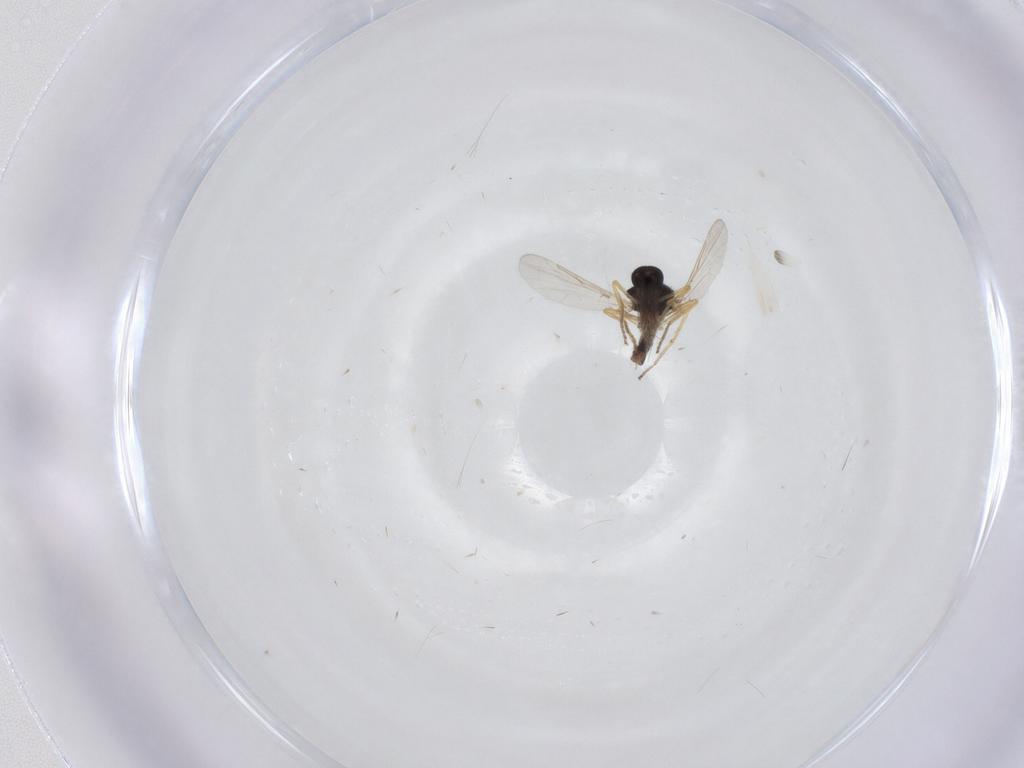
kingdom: Animalia
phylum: Arthropoda
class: Insecta
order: Diptera
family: Ceratopogonidae
